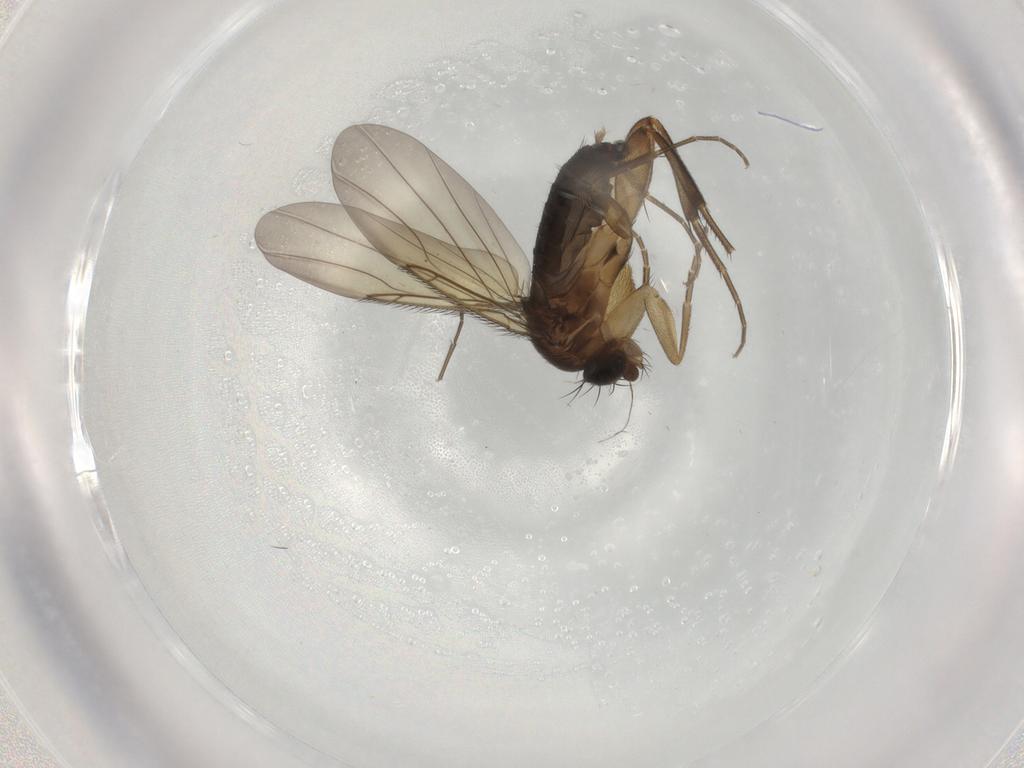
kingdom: Animalia
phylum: Arthropoda
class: Insecta
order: Diptera
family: Phoridae
